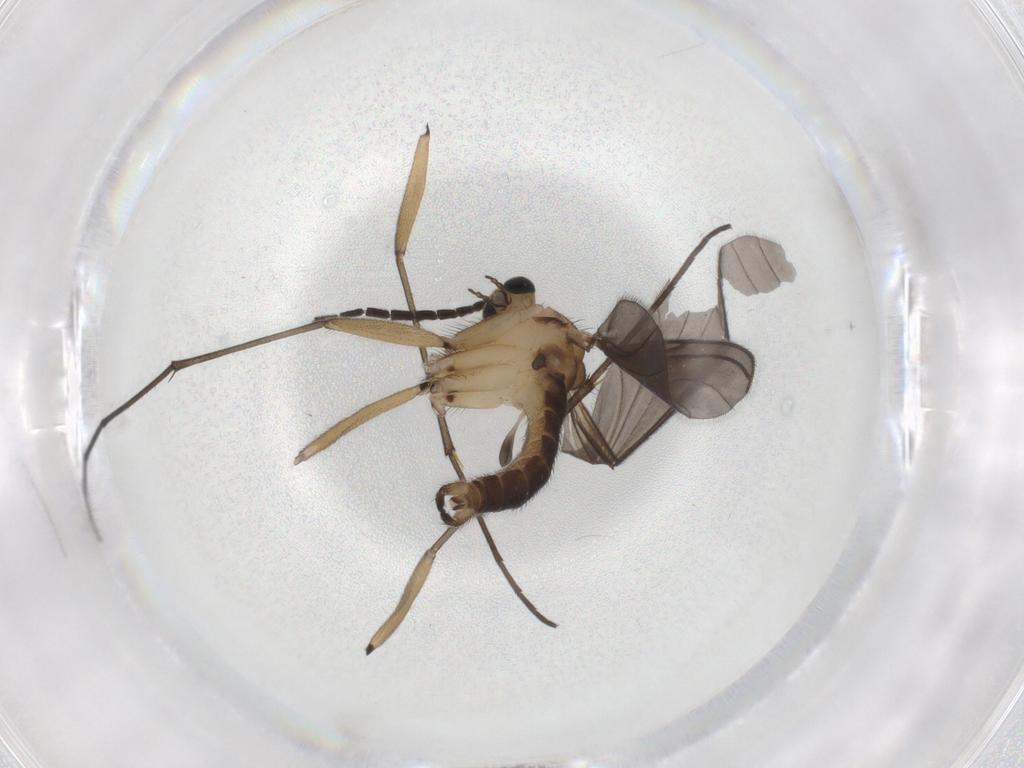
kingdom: Animalia
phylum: Arthropoda
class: Insecta
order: Diptera
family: Sciaridae
